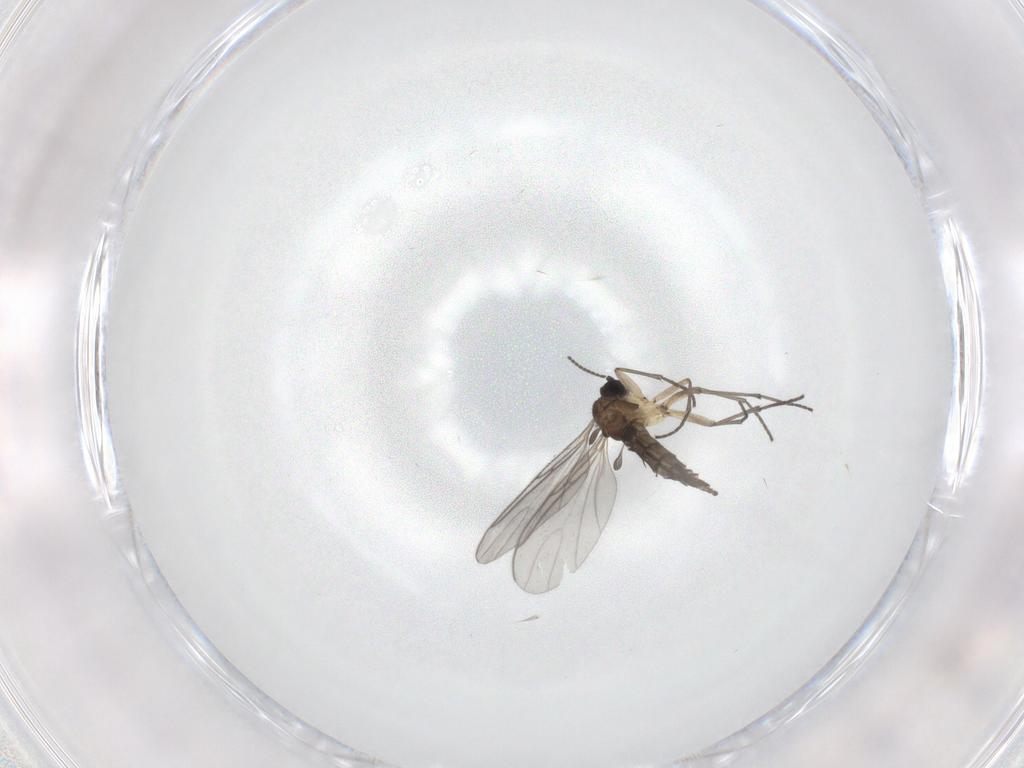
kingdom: Animalia
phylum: Arthropoda
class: Insecta
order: Diptera
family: Sciaridae
